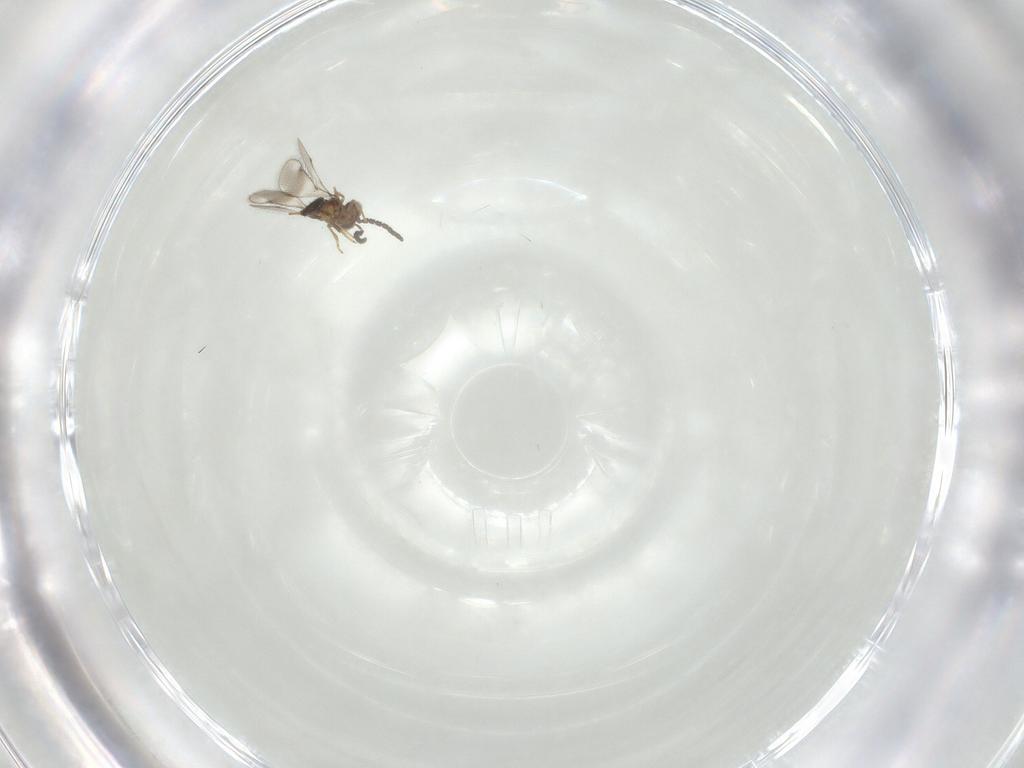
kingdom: Animalia
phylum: Arthropoda
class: Insecta
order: Hymenoptera
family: Pteromalidae
